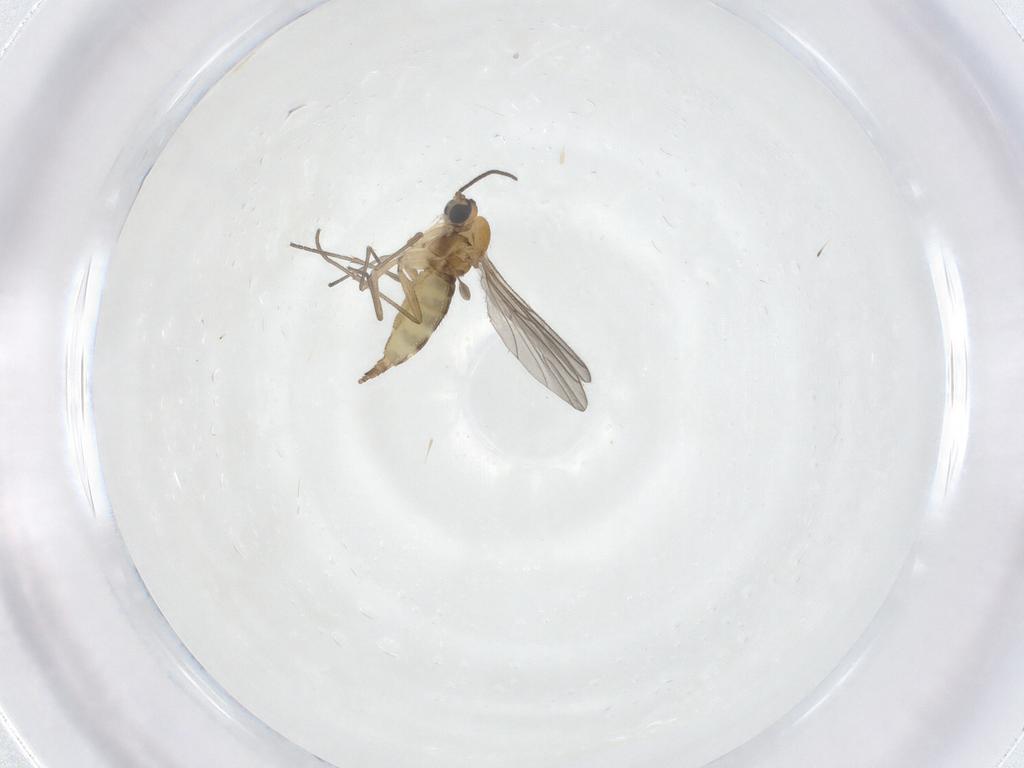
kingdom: Animalia
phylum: Arthropoda
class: Insecta
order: Diptera
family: Sciaridae
